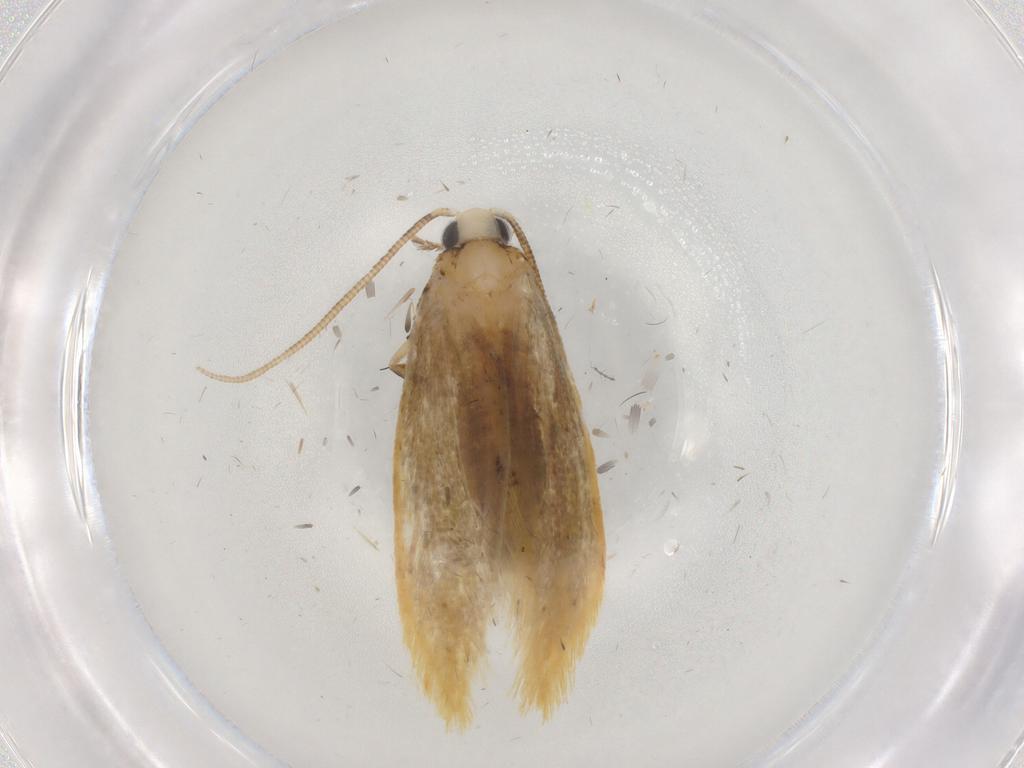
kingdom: Animalia
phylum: Arthropoda
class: Insecta
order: Lepidoptera
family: Tineidae
